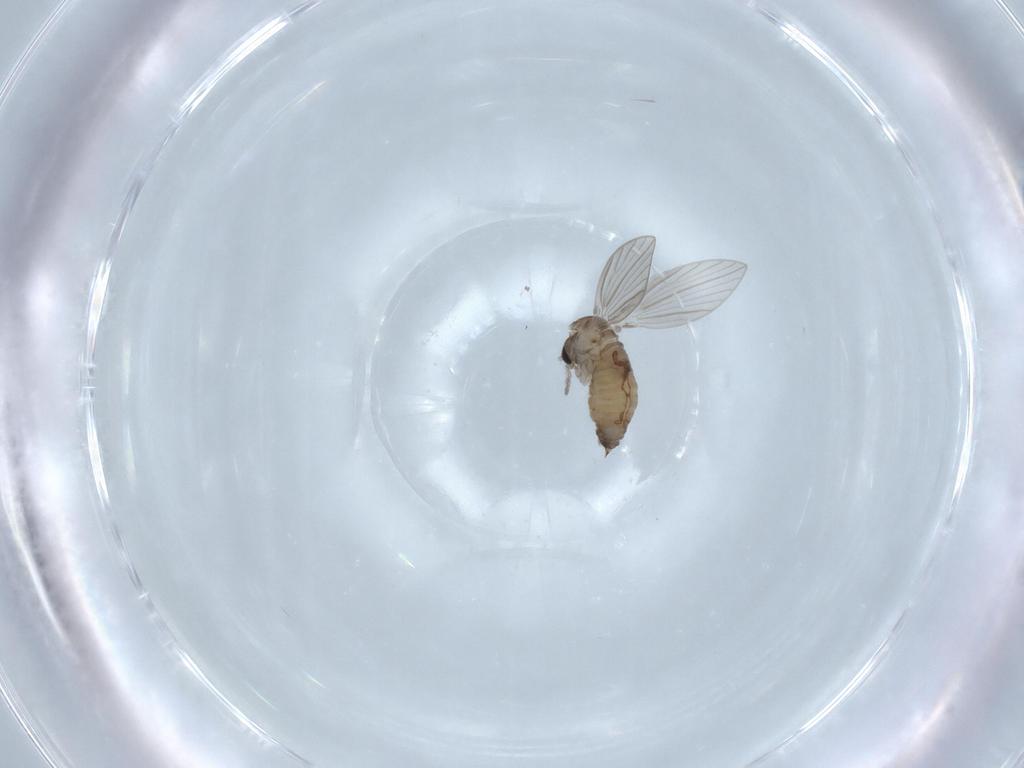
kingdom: Animalia
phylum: Arthropoda
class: Insecta
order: Diptera
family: Psychodidae
